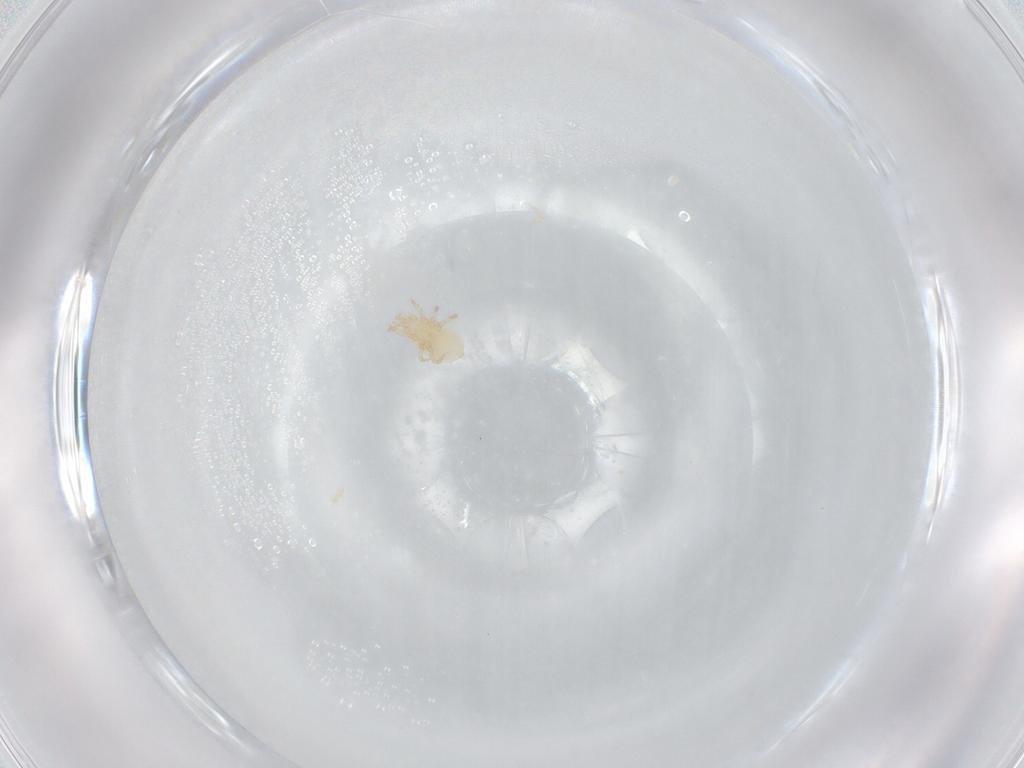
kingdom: Animalia
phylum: Arthropoda
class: Arachnida
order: Mesostigmata
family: Blattisociidae
